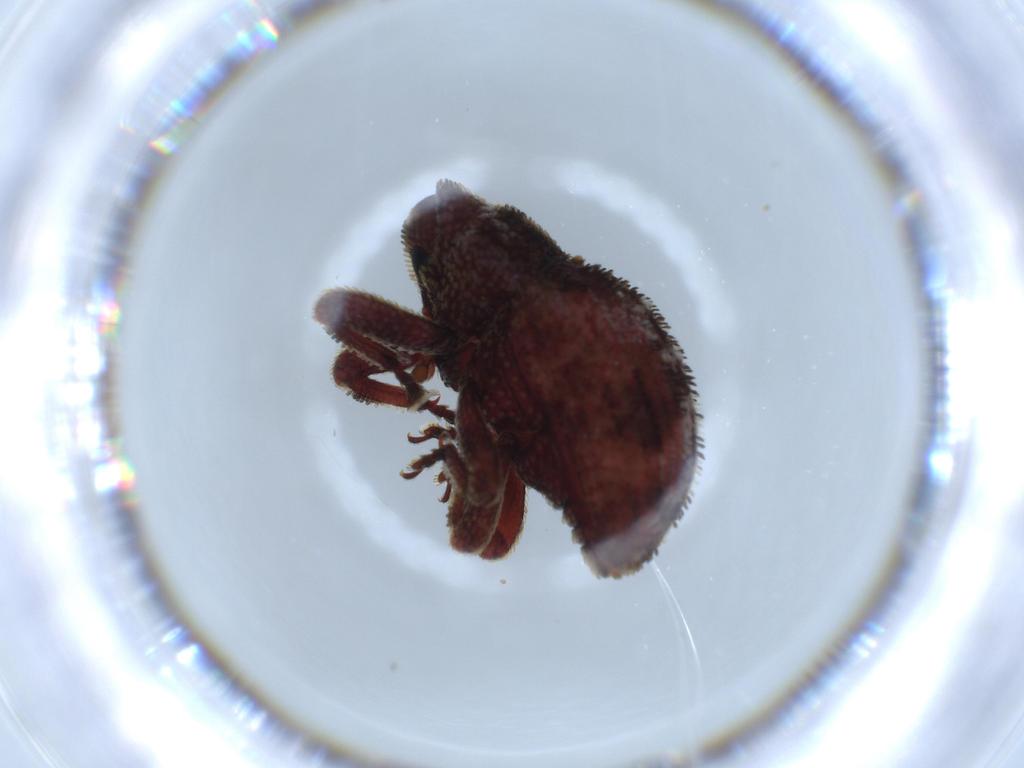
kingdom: Animalia
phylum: Arthropoda
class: Insecta
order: Coleoptera
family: Curculionidae
